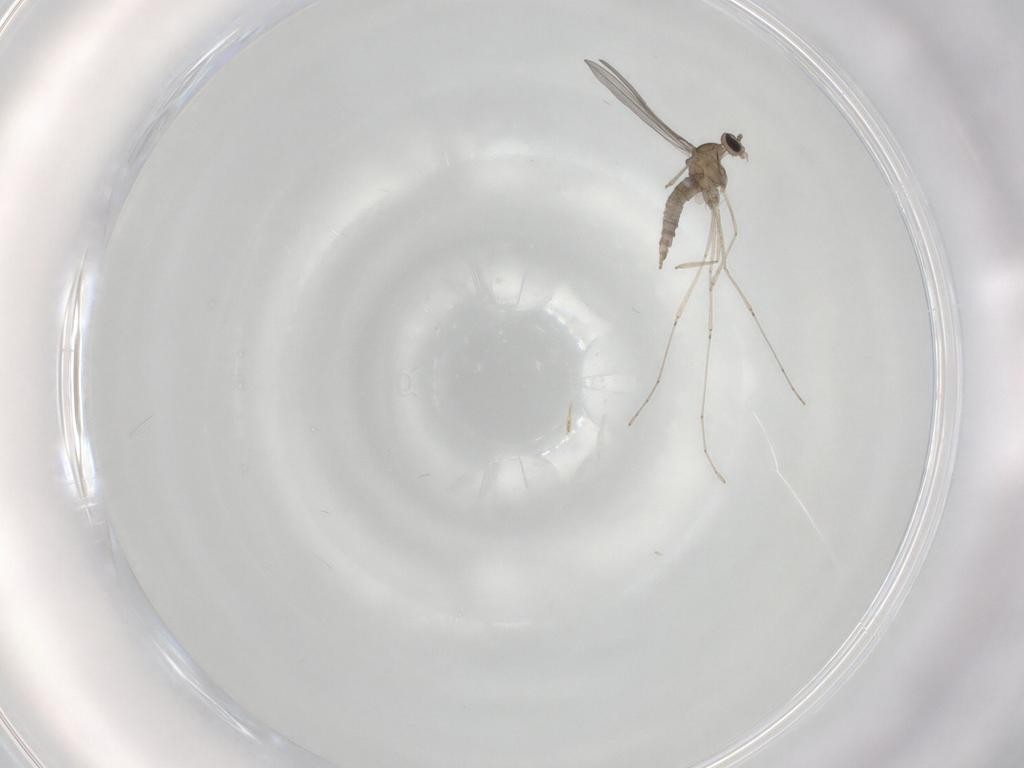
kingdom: Animalia
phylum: Arthropoda
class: Insecta
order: Diptera
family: Cecidomyiidae
